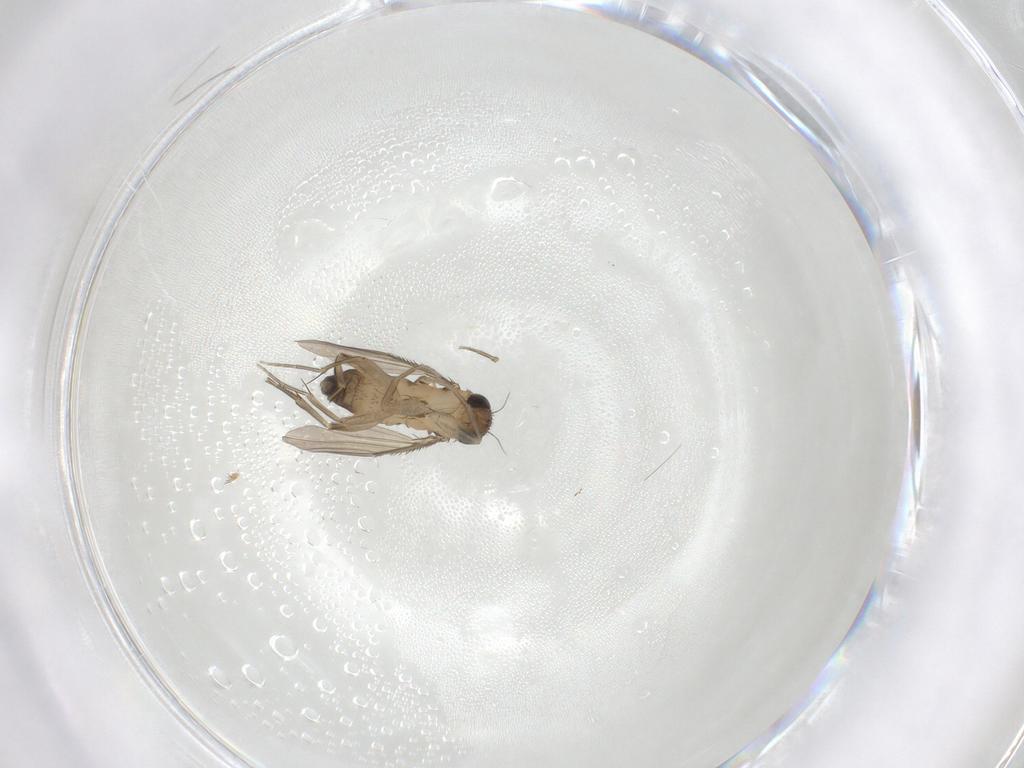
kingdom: Animalia
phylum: Arthropoda
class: Insecta
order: Diptera
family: Phoridae
